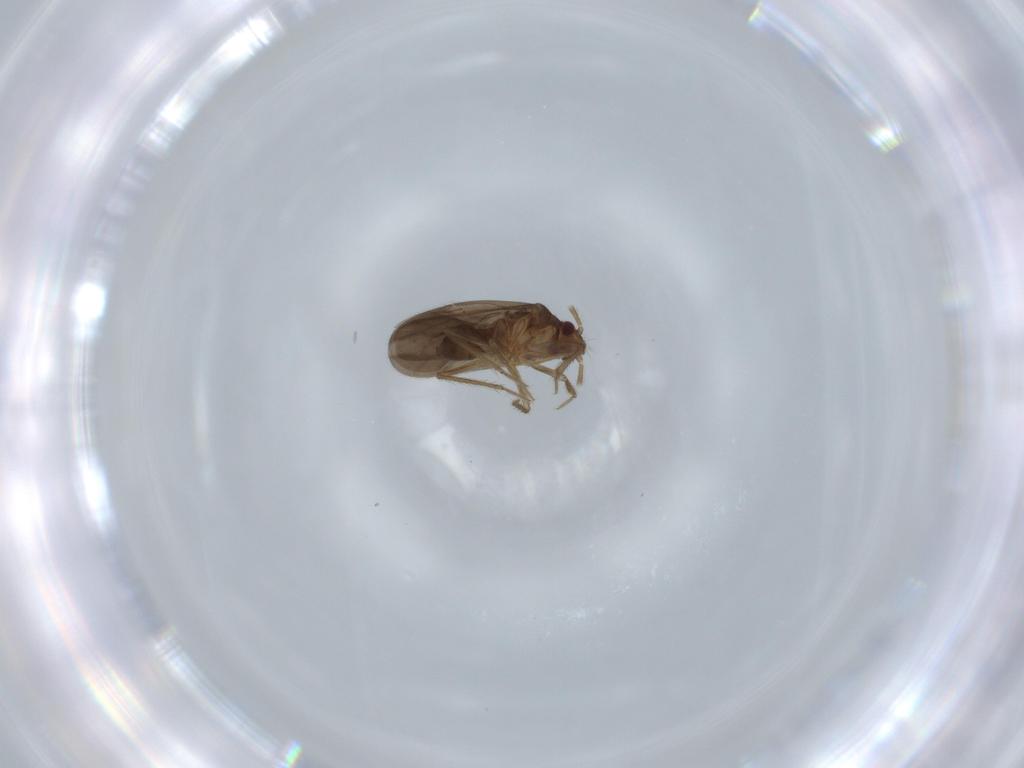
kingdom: Animalia
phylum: Arthropoda
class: Insecta
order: Hemiptera
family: Ceratocombidae
